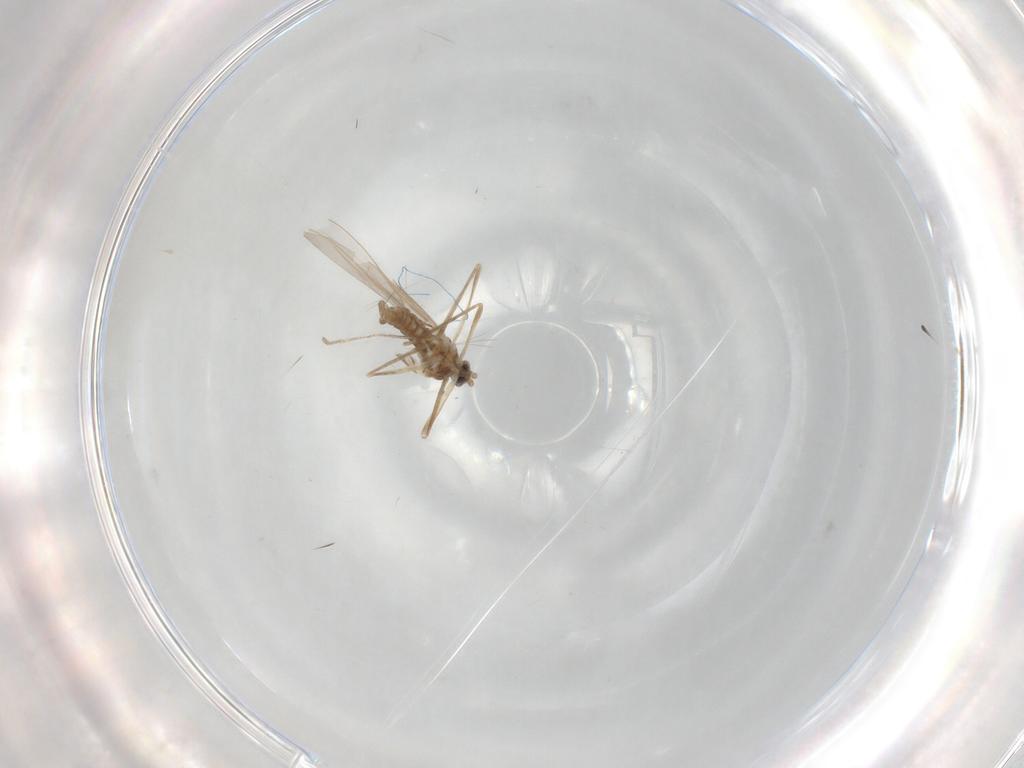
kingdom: Animalia
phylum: Arthropoda
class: Insecta
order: Diptera
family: Cecidomyiidae
